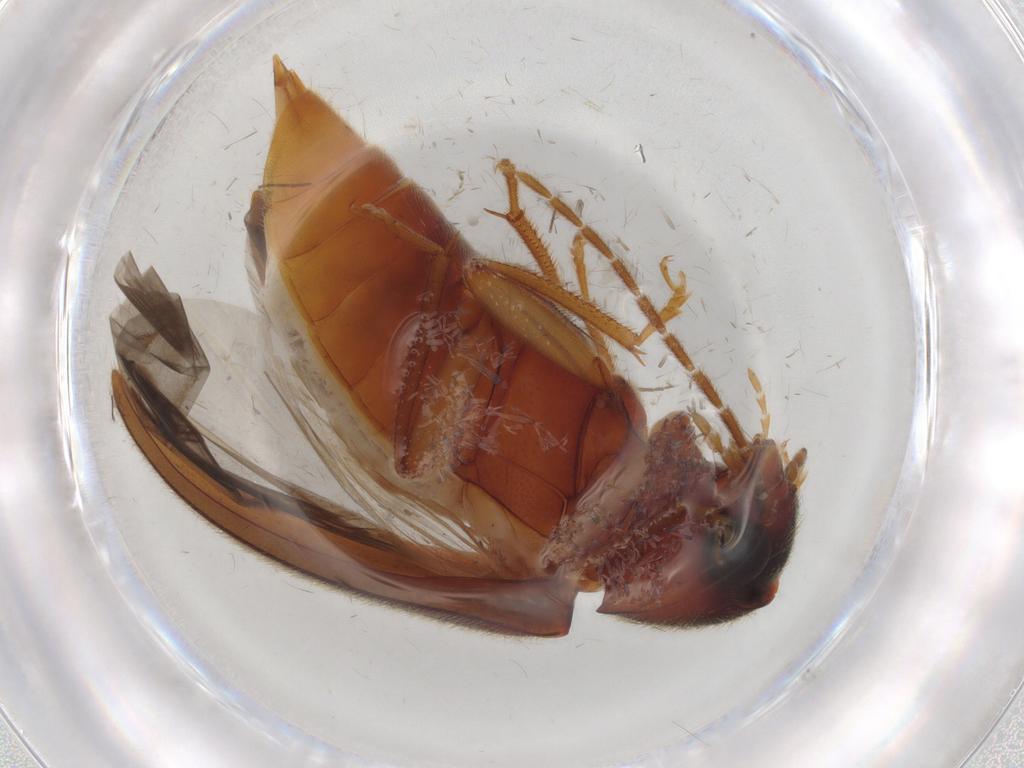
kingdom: Animalia
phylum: Arthropoda
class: Insecta
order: Coleoptera
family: Ptilodactylidae
